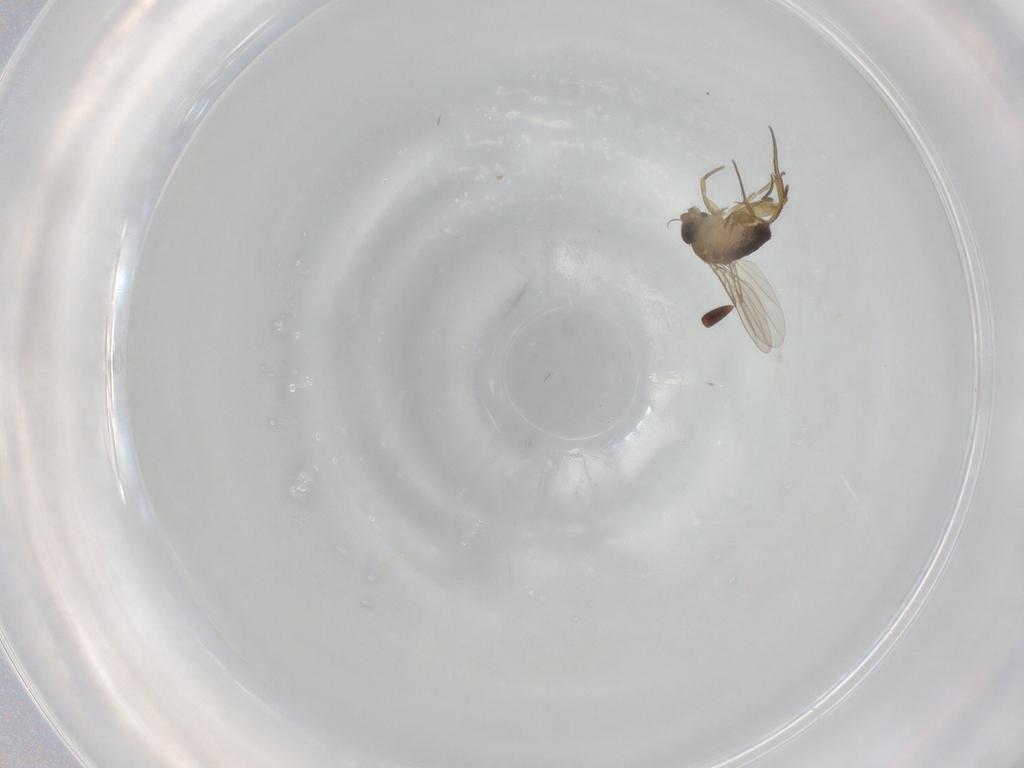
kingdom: Animalia
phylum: Arthropoda
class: Insecta
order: Diptera
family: Phoridae
